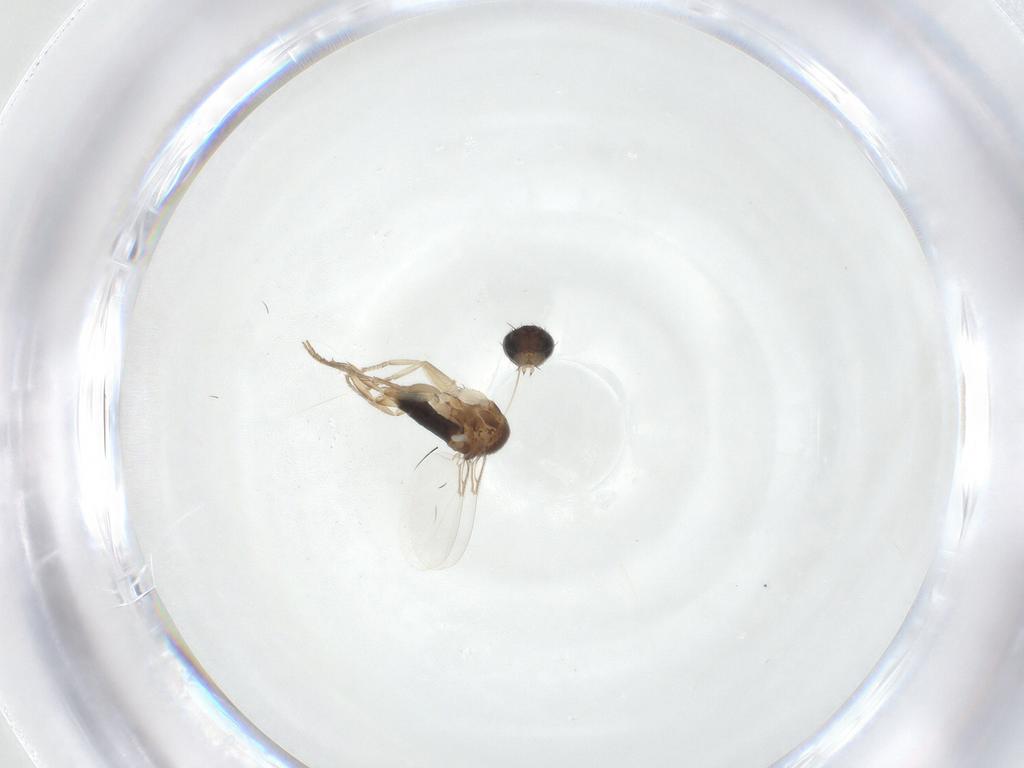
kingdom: Animalia
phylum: Arthropoda
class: Insecta
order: Diptera
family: Phoridae
